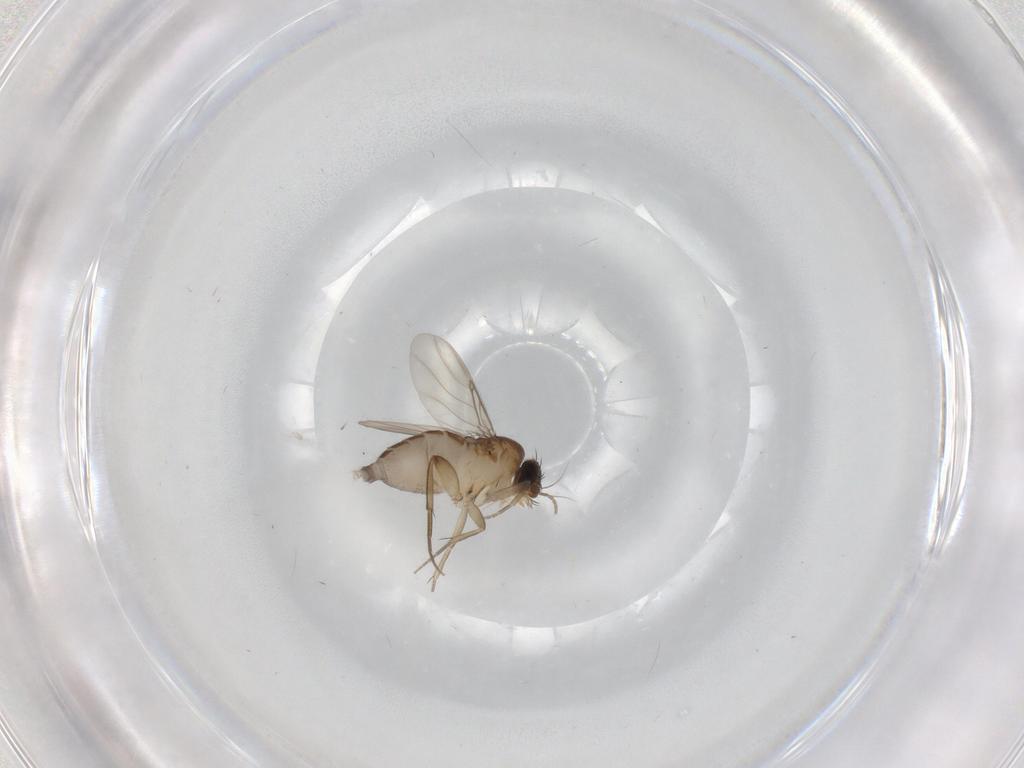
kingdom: Animalia
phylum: Arthropoda
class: Insecta
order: Diptera
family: Phoridae
